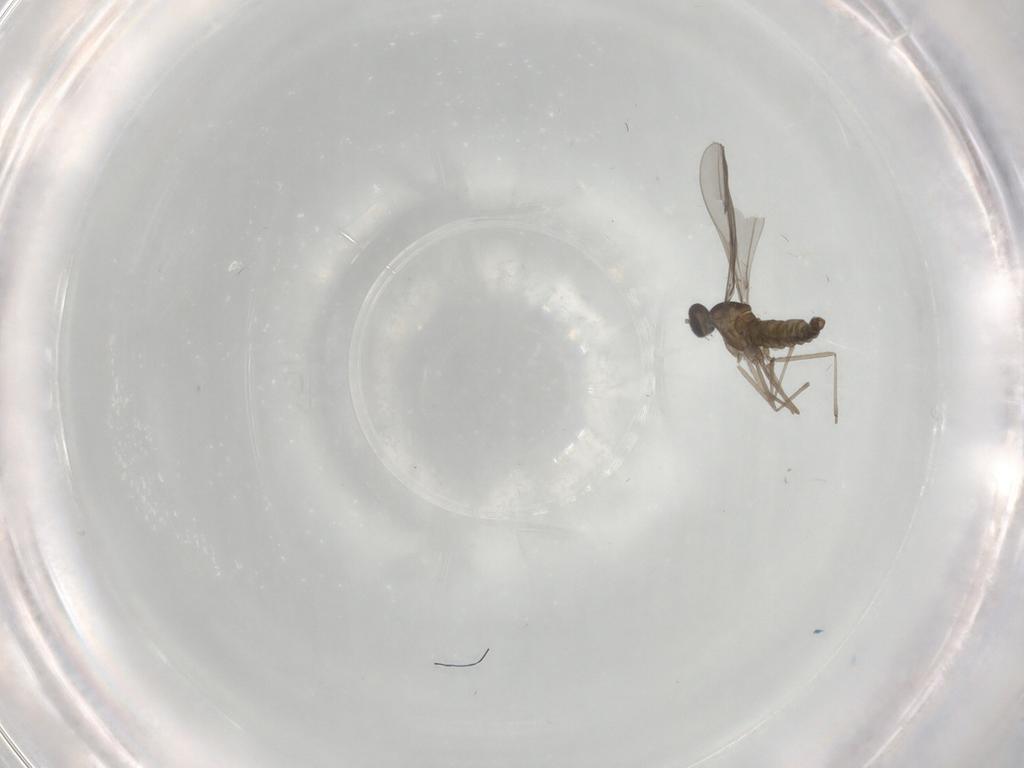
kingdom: Animalia
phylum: Arthropoda
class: Insecta
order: Diptera
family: Cecidomyiidae
